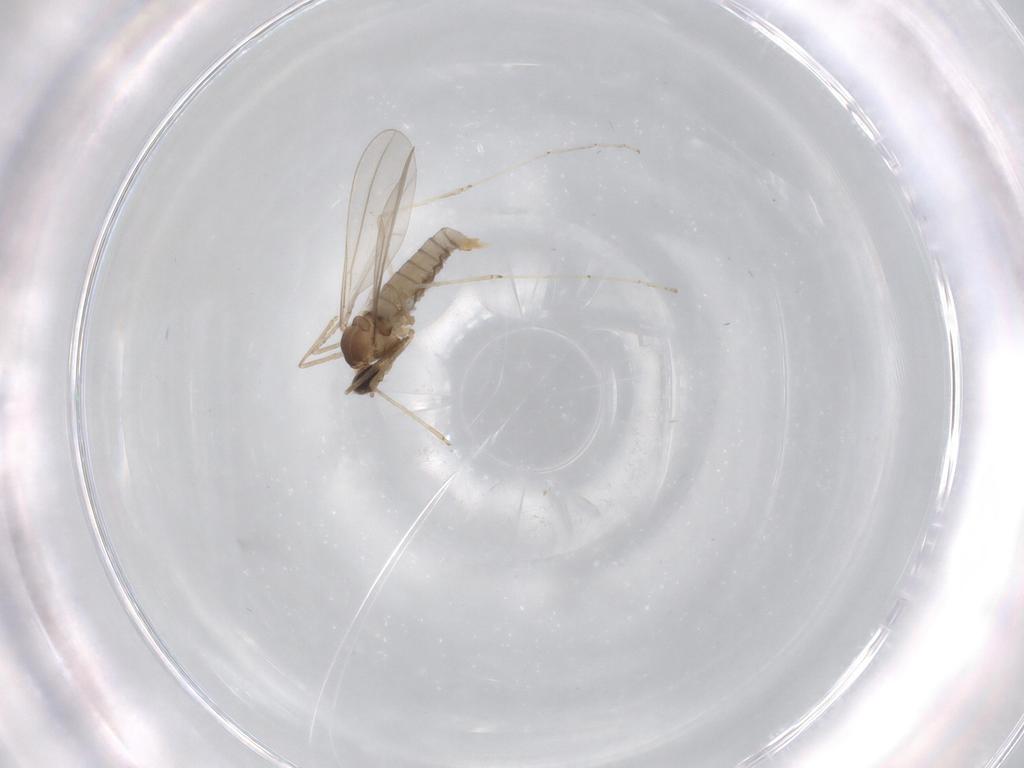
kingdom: Animalia
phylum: Arthropoda
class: Insecta
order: Diptera
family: Cecidomyiidae
